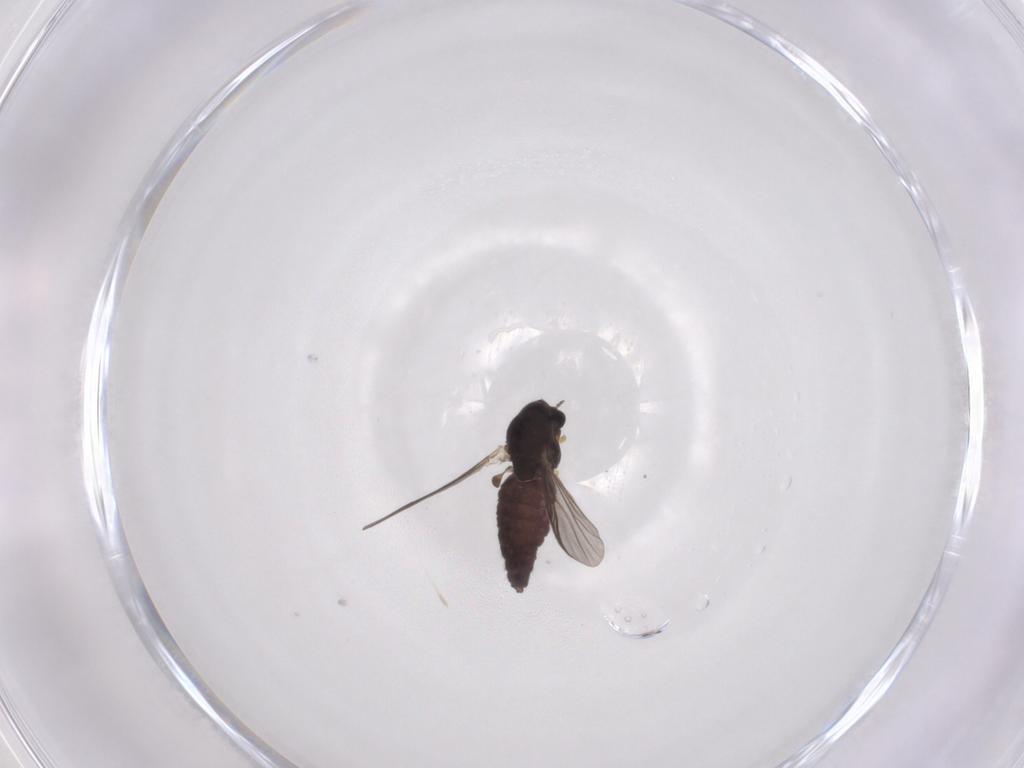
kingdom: Animalia
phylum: Arthropoda
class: Insecta
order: Diptera
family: Chironomidae
